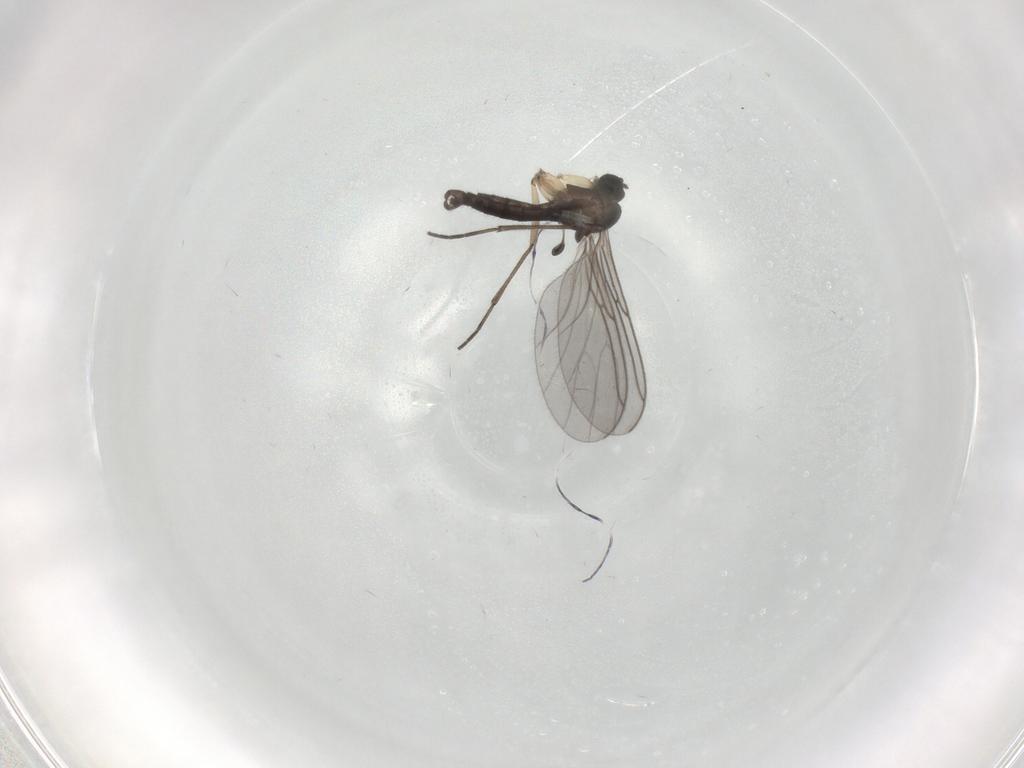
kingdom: Animalia
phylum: Arthropoda
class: Insecta
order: Diptera
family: Sciaridae
